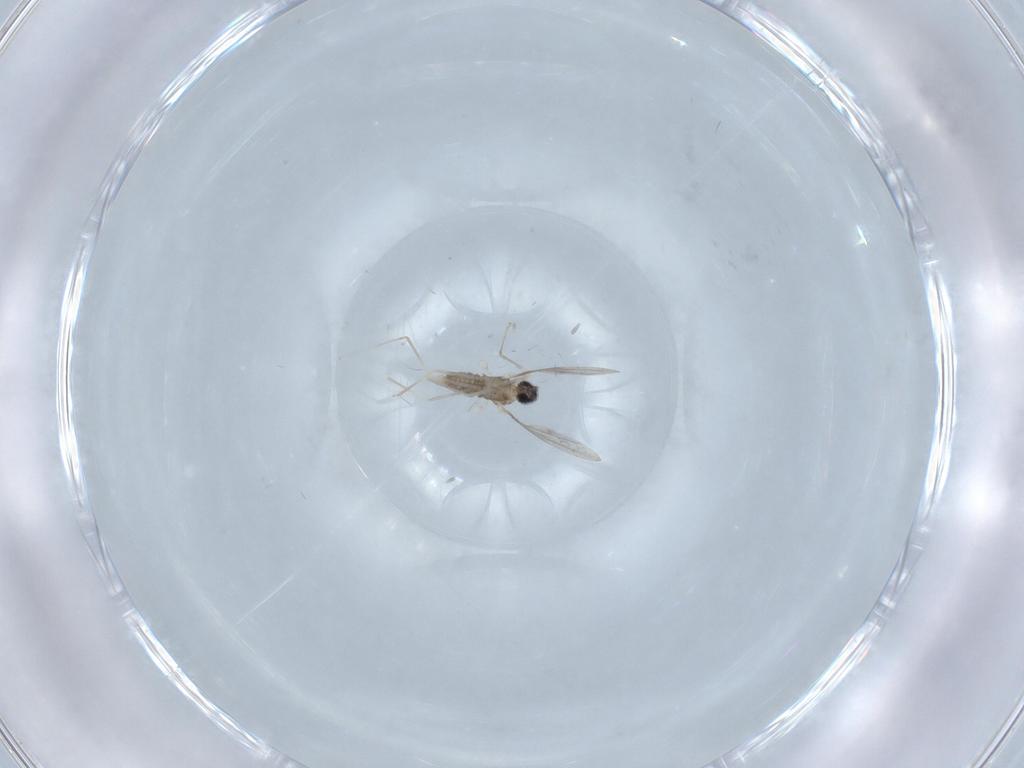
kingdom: Animalia
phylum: Arthropoda
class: Insecta
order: Diptera
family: Cecidomyiidae
